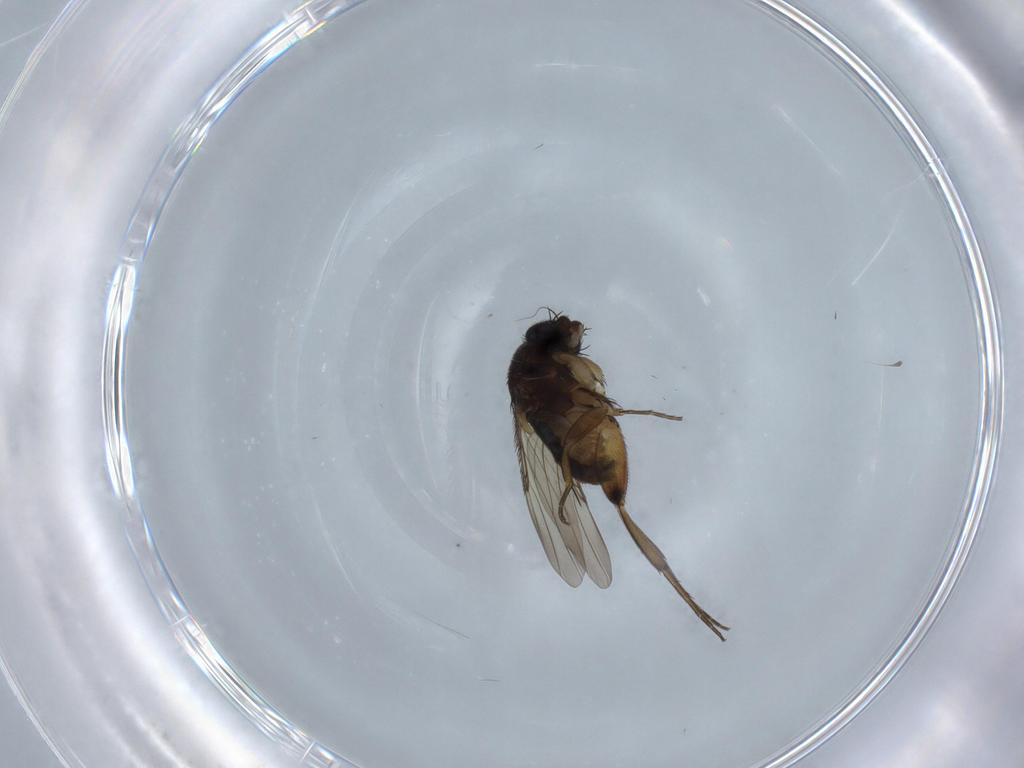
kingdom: Animalia
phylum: Arthropoda
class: Insecta
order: Diptera
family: Phoridae
